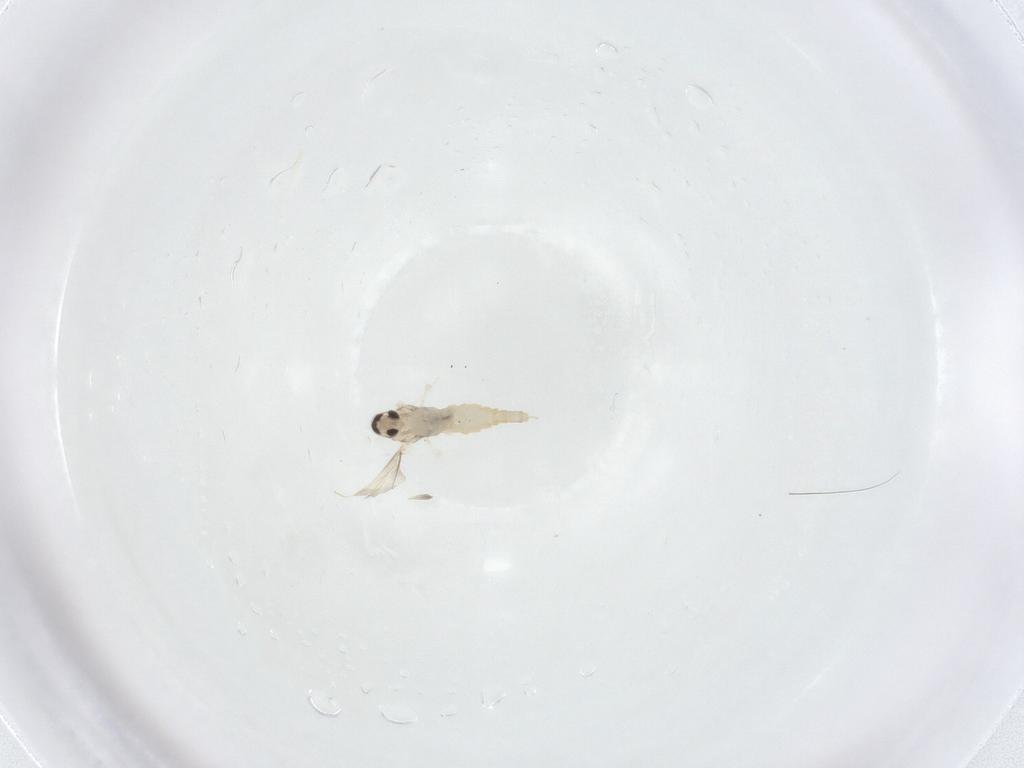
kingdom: Animalia
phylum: Arthropoda
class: Insecta
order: Diptera
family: Cecidomyiidae
